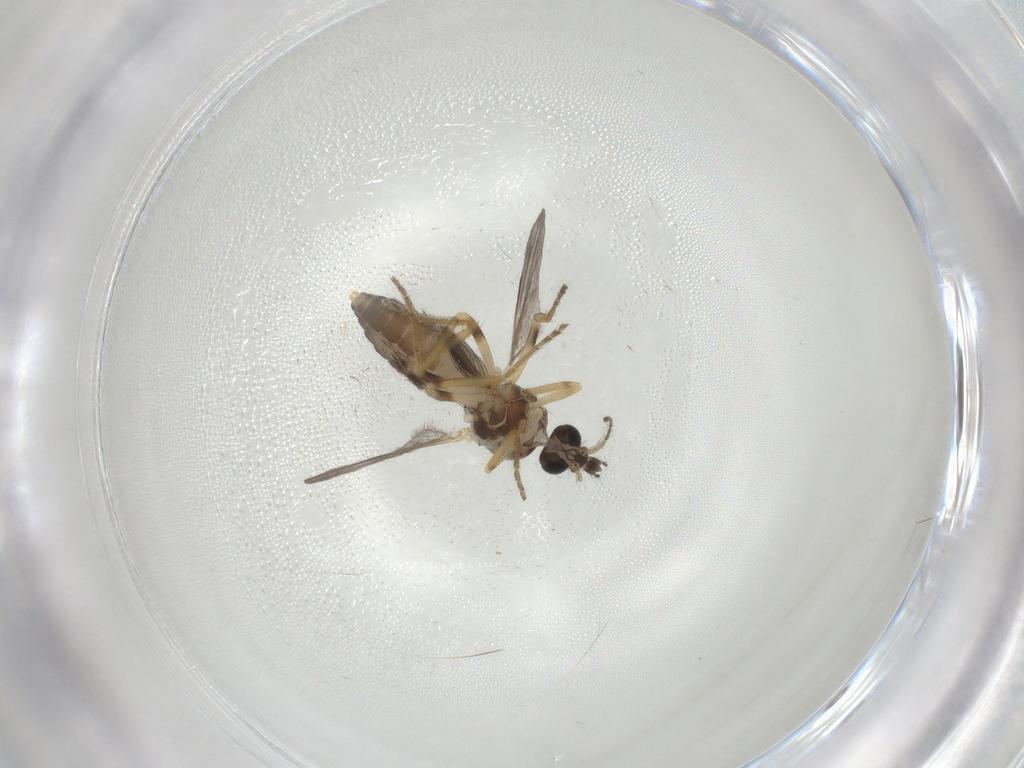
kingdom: Animalia
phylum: Arthropoda
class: Insecta
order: Diptera
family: Ceratopogonidae
